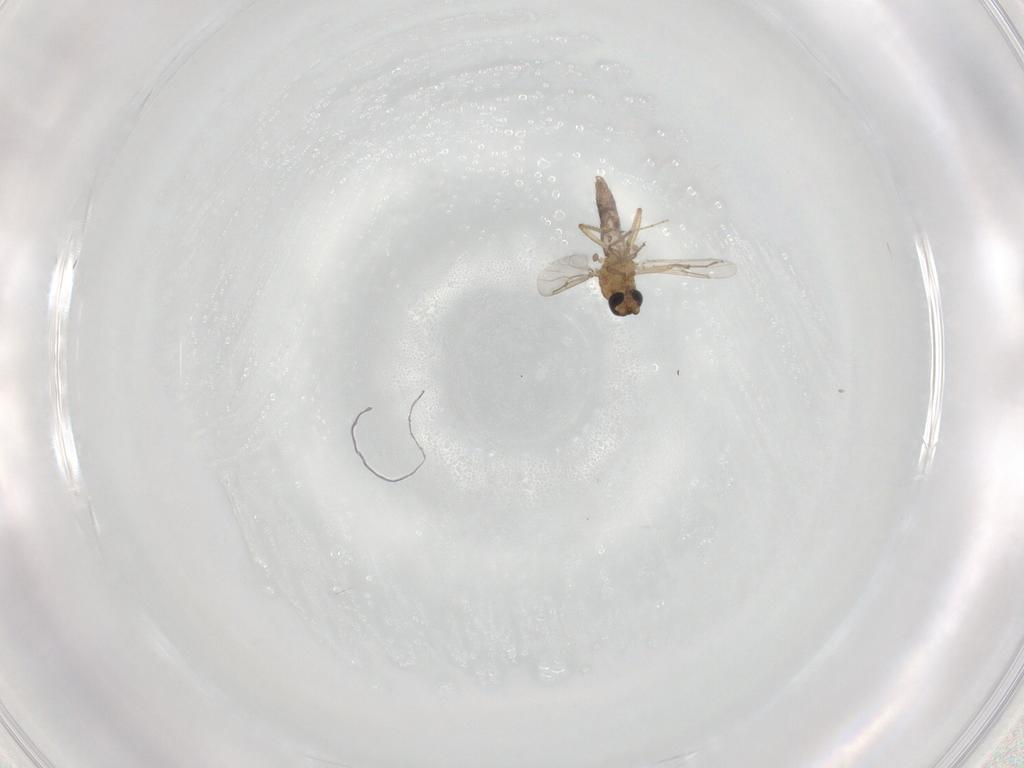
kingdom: Animalia
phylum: Arthropoda
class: Insecta
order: Diptera
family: Ceratopogonidae
